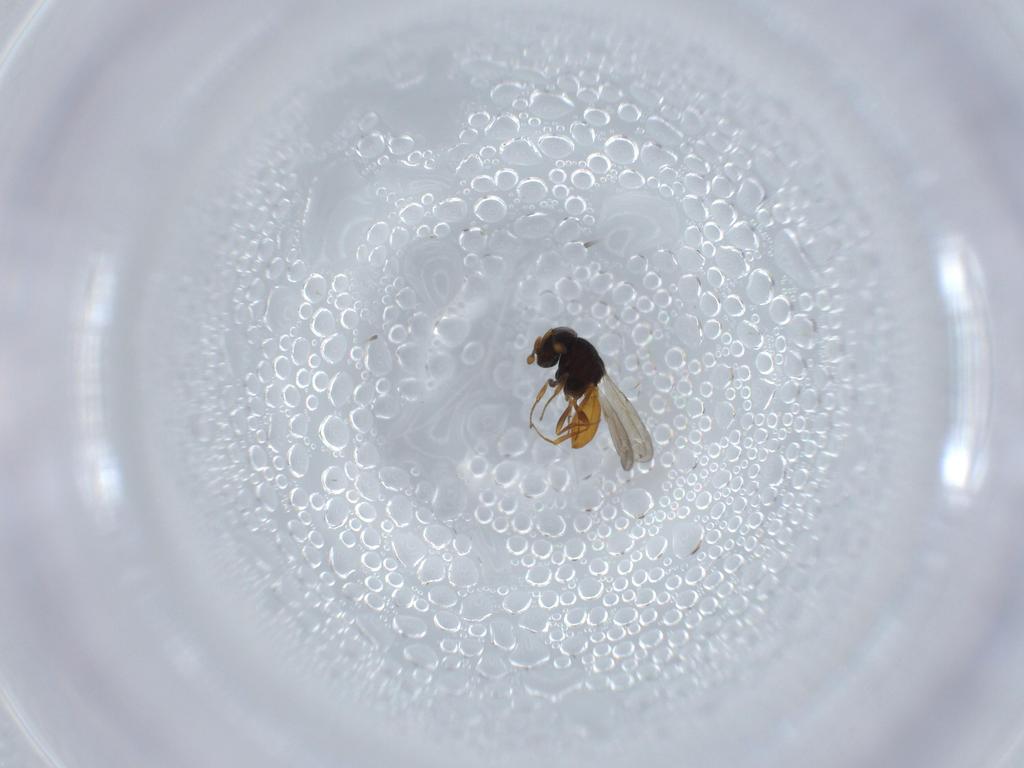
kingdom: Animalia
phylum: Arthropoda
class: Insecta
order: Hymenoptera
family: Scelionidae
